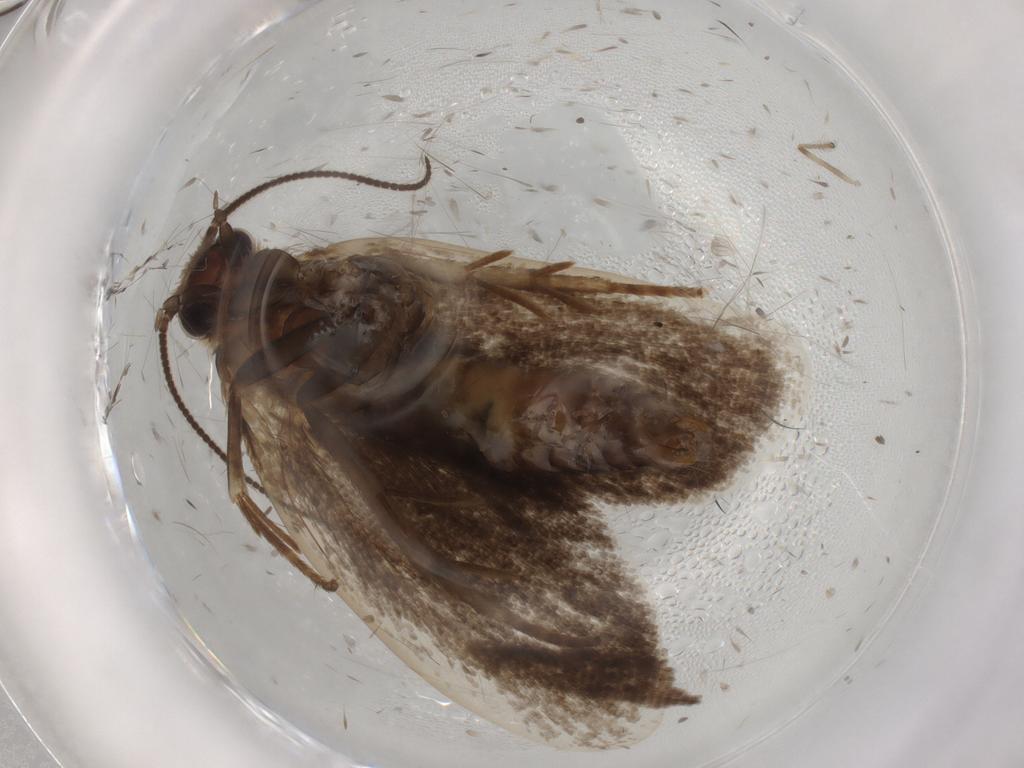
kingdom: Animalia
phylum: Arthropoda
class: Insecta
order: Lepidoptera
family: Tineidae
